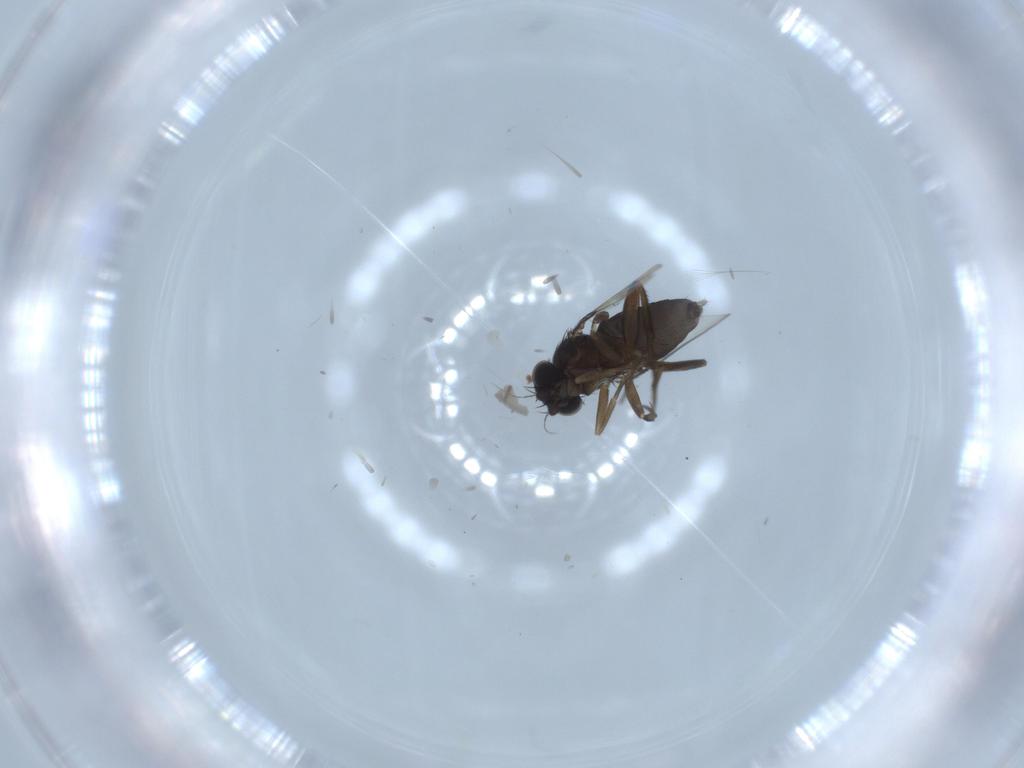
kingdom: Animalia
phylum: Arthropoda
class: Insecta
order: Diptera
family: Phoridae
